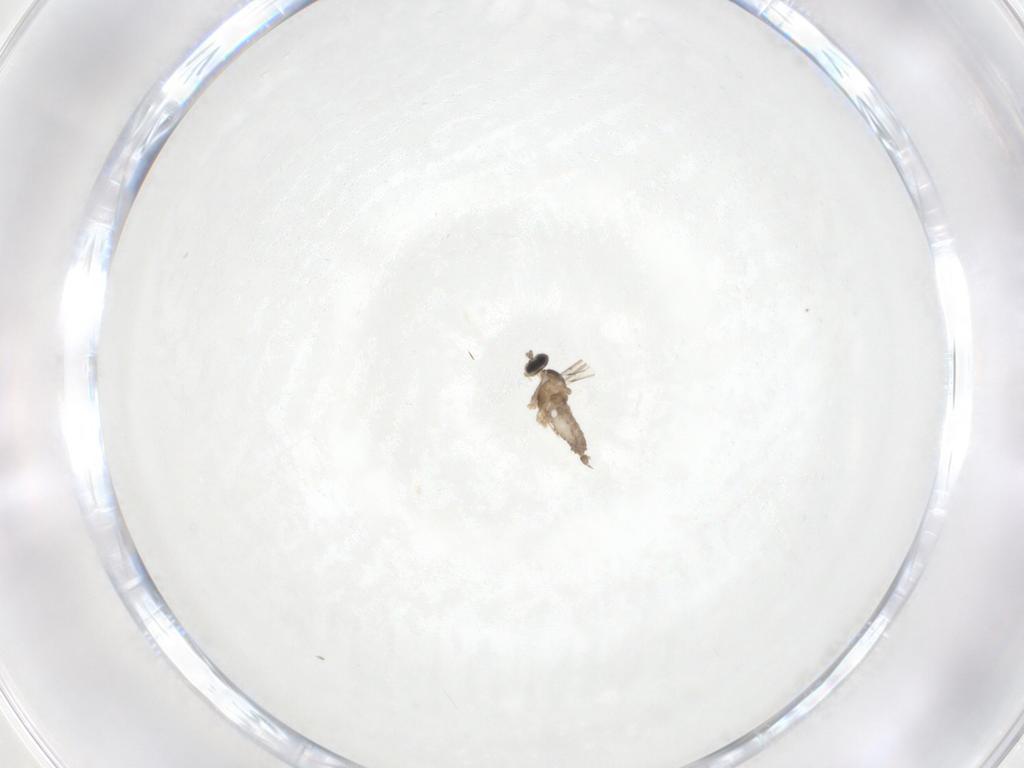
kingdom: Animalia
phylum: Arthropoda
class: Insecta
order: Diptera
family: Cecidomyiidae
